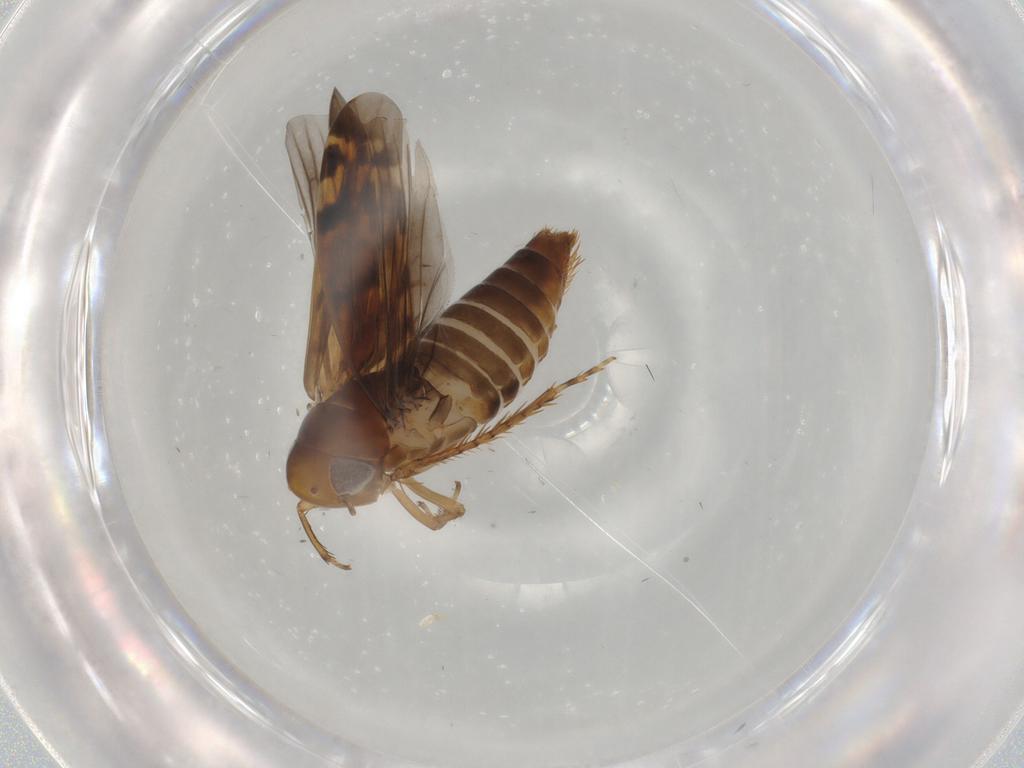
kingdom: Animalia
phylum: Arthropoda
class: Insecta
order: Hemiptera
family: Cicadellidae
